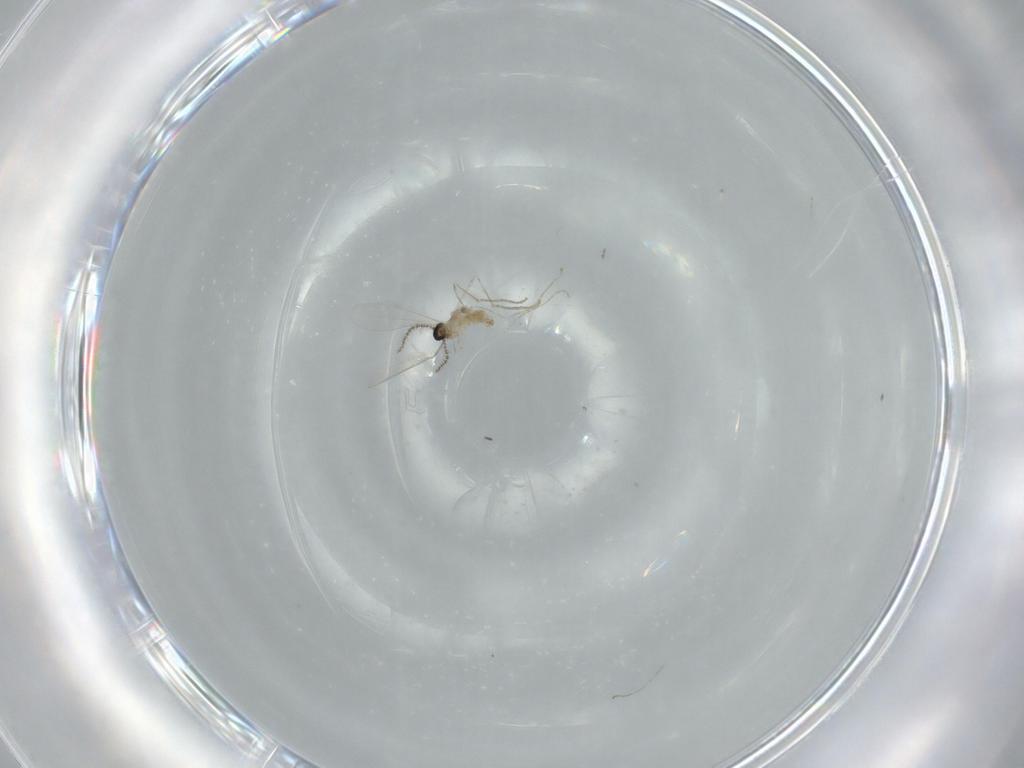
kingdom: Animalia
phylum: Arthropoda
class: Insecta
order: Diptera
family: Cecidomyiidae
